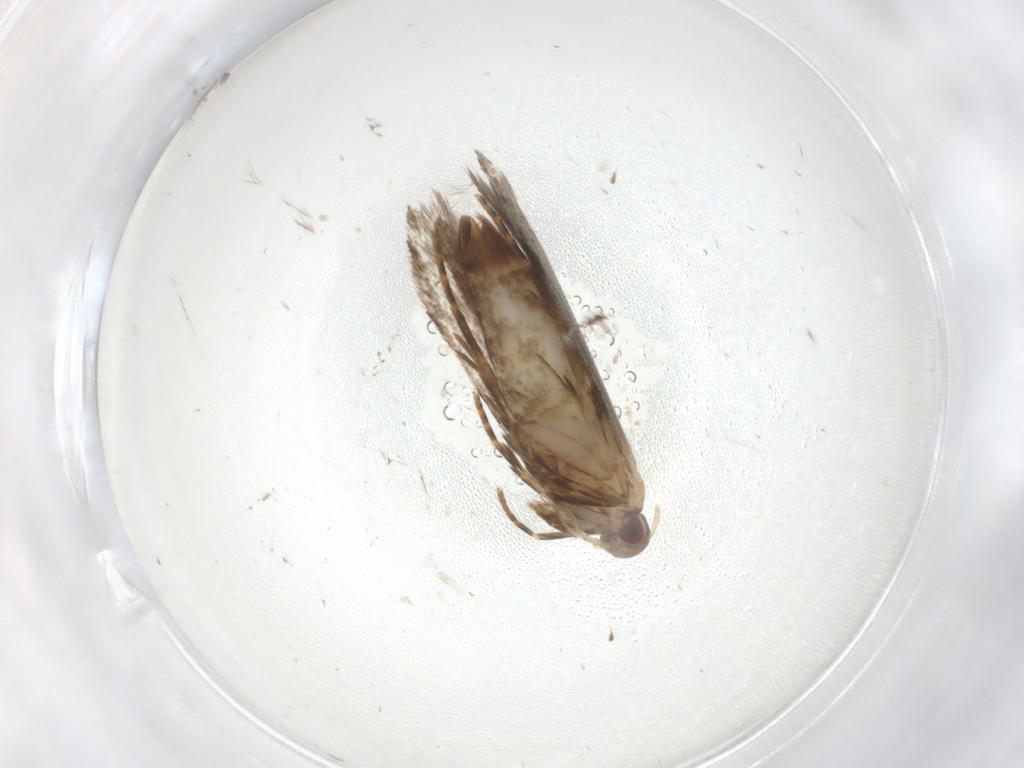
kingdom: Animalia
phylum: Arthropoda
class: Insecta
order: Lepidoptera
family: Gelechiidae
